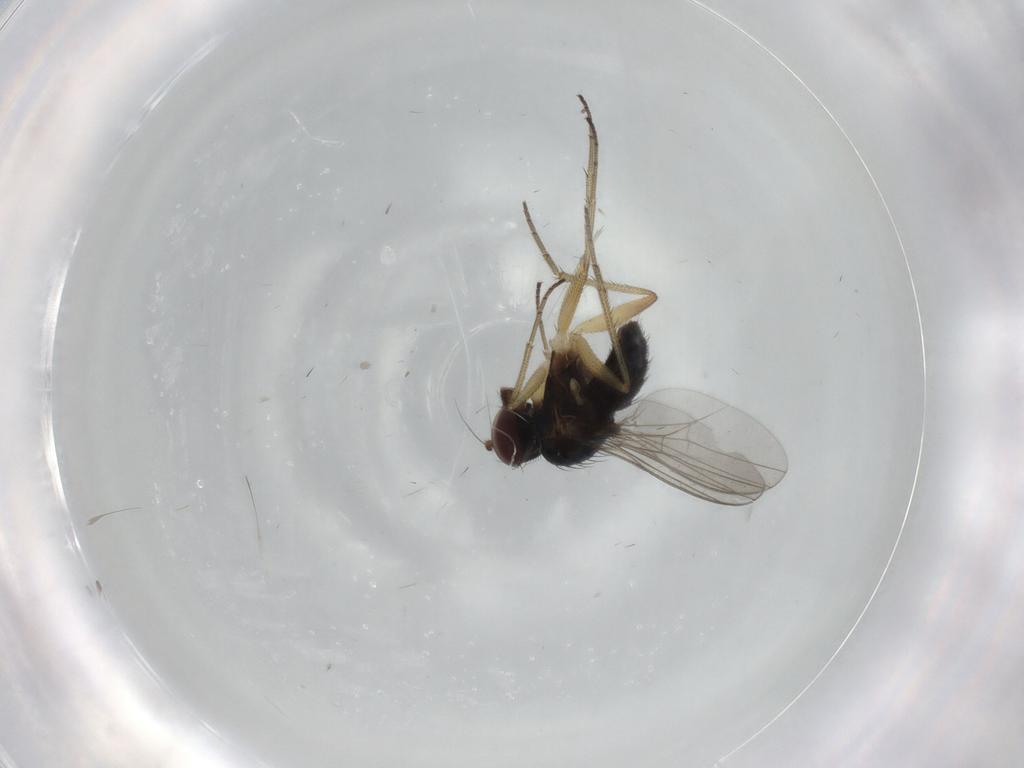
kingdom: Animalia
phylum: Arthropoda
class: Insecta
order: Diptera
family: Dolichopodidae
